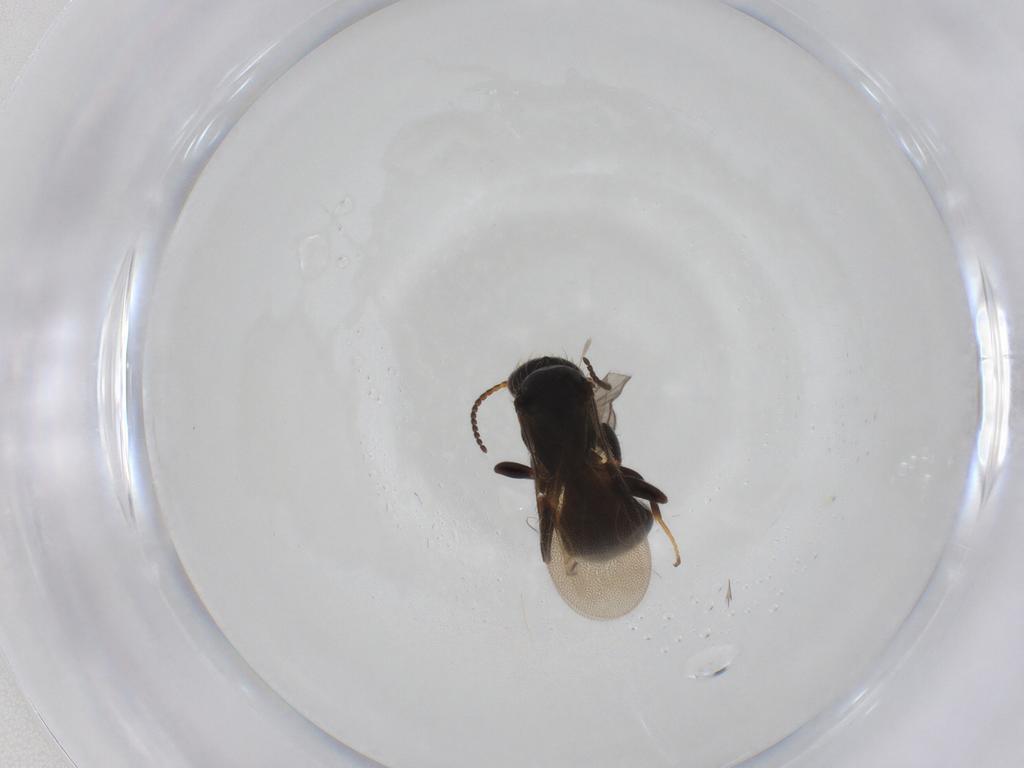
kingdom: Animalia
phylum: Arthropoda
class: Insecta
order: Hymenoptera
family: Bethylidae
